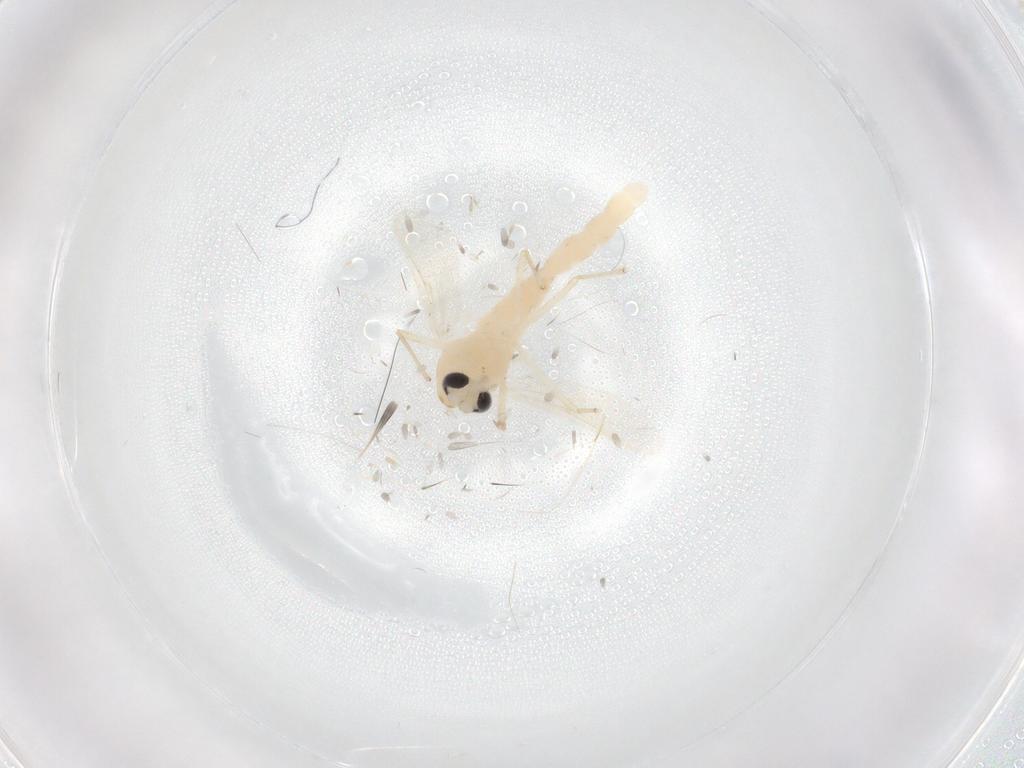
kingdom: Animalia
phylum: Arthropoda
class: Insecta
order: Diptera
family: Chironomidae
